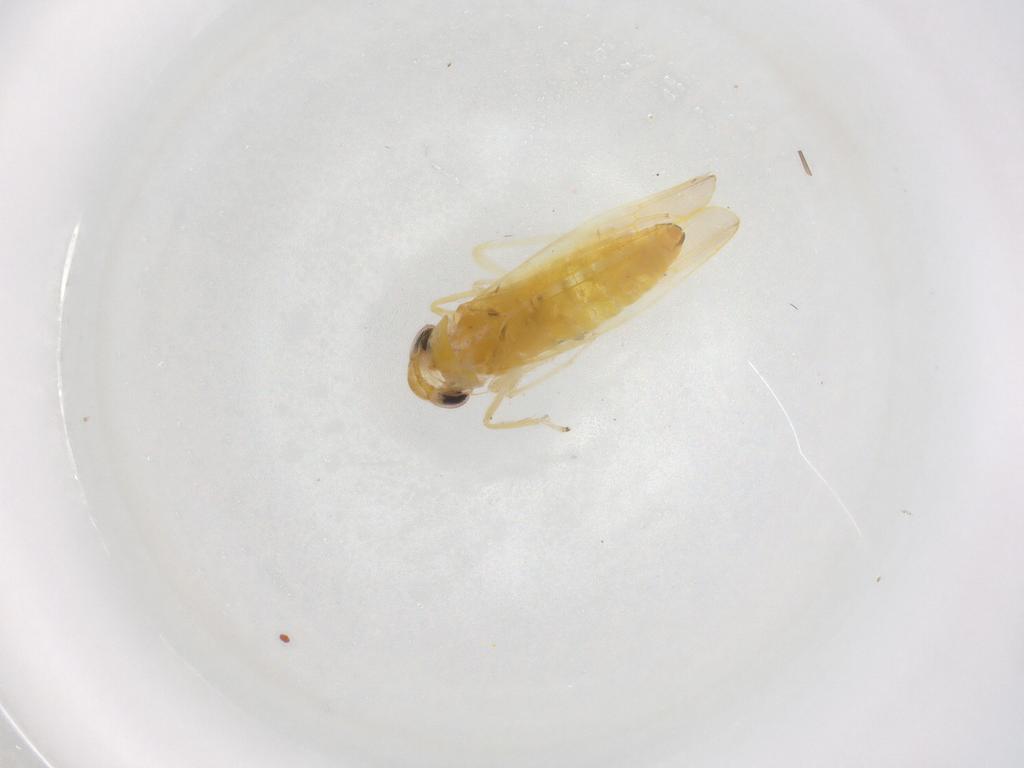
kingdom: Animalia
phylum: Arthropoda
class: Insecta
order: Hemiptera
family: Cicadellidae
